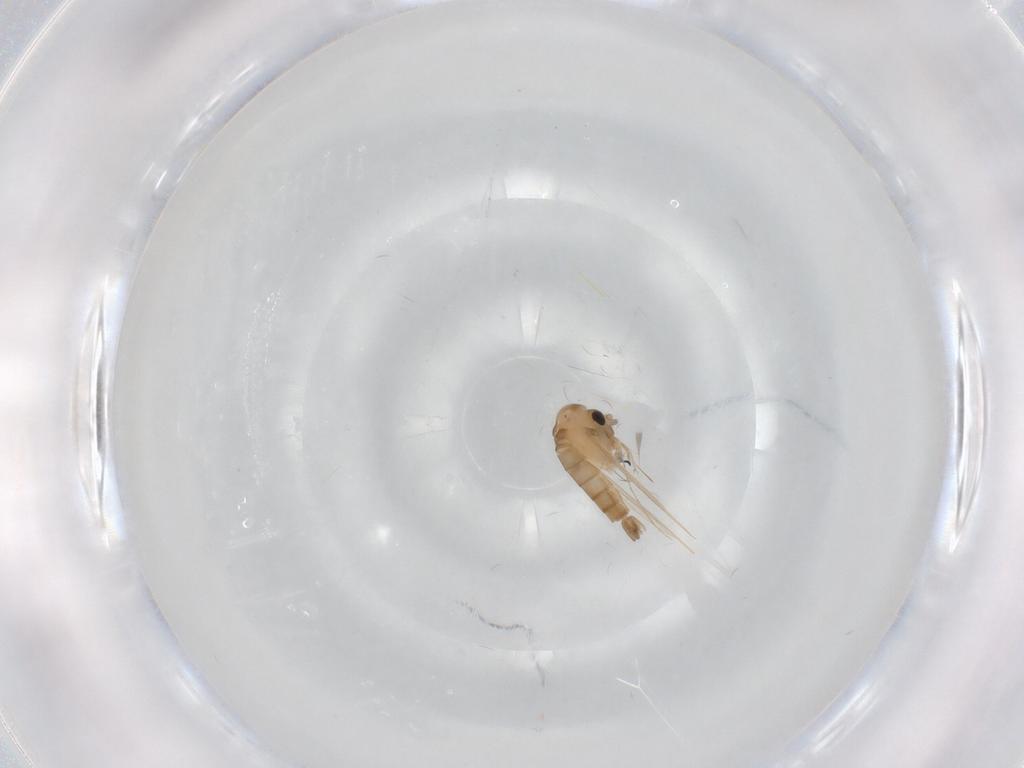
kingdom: Animalia
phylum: Arthropoda
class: Insecta
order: Diptera
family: Psychodidae
